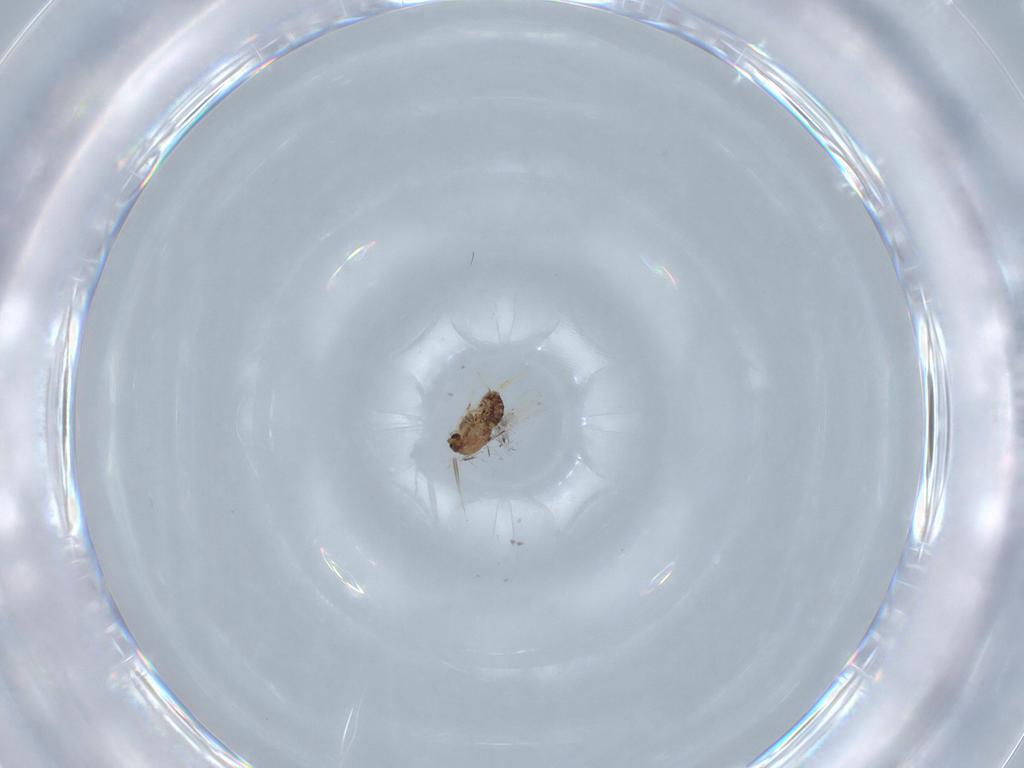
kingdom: Animalia
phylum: Arthropoda
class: Insecta
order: Diptera
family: Chironomidae
